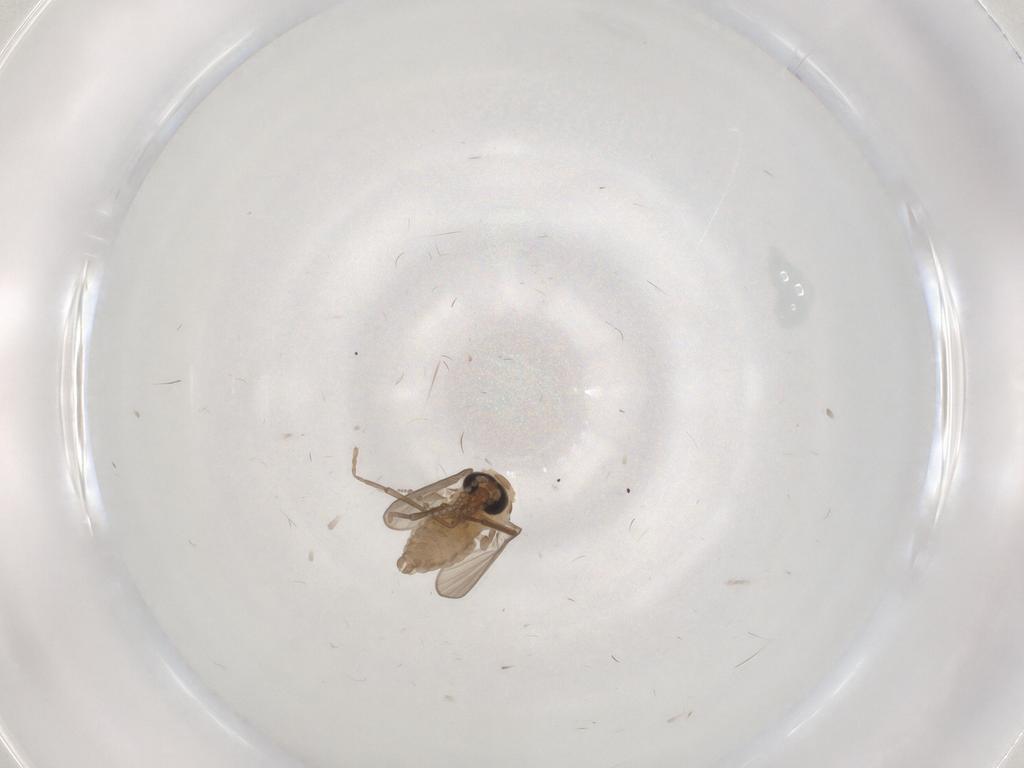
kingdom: Animalia
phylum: Arthropoda
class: Insecta
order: Diptera
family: Psychodidae
